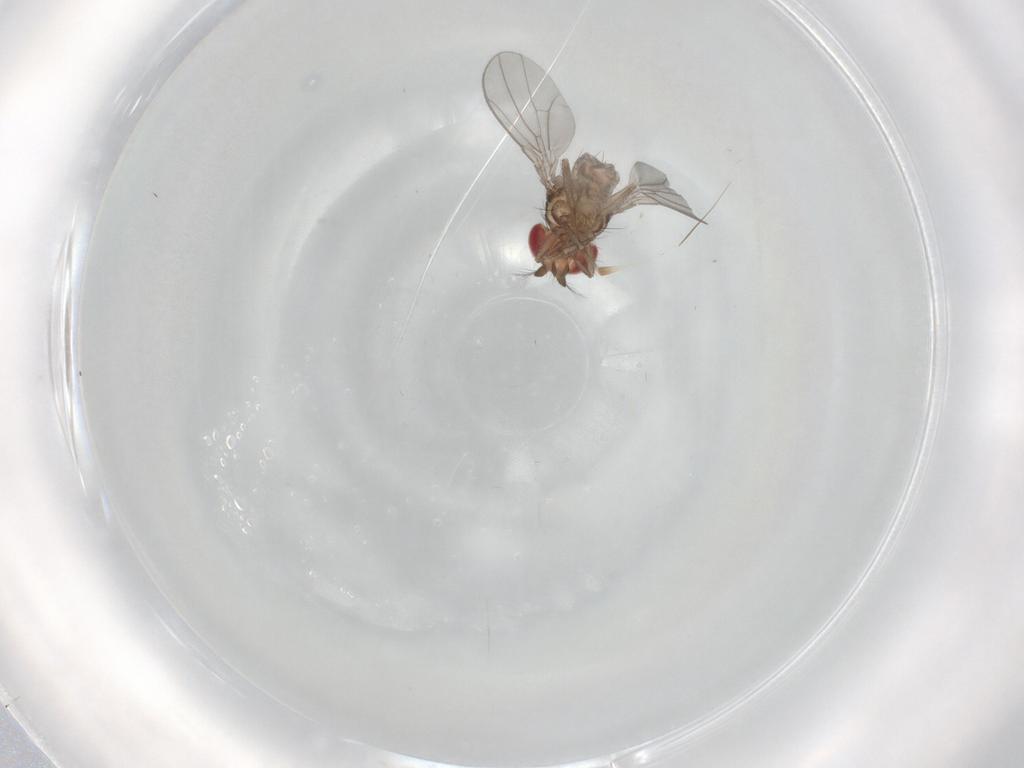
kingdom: Animalia
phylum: Arthropoda
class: Insecta
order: Diptera
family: Drosophilidae
